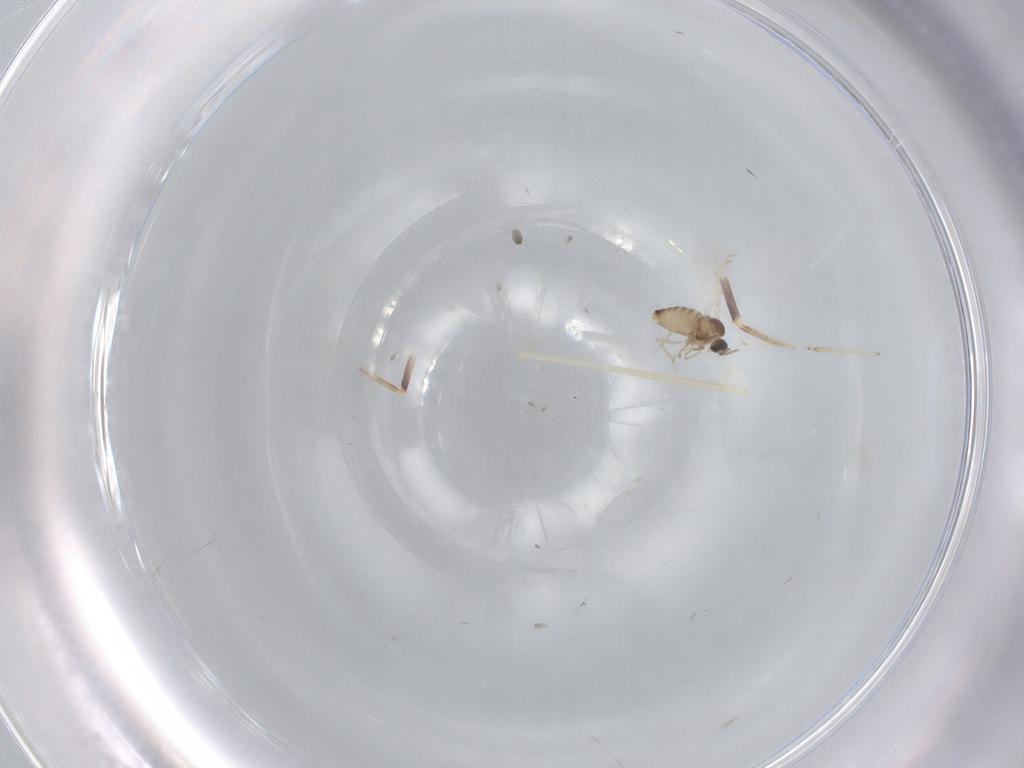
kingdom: Animalia
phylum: Arthropoda
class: Insecta
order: Diptera
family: Cecidomyiidae
